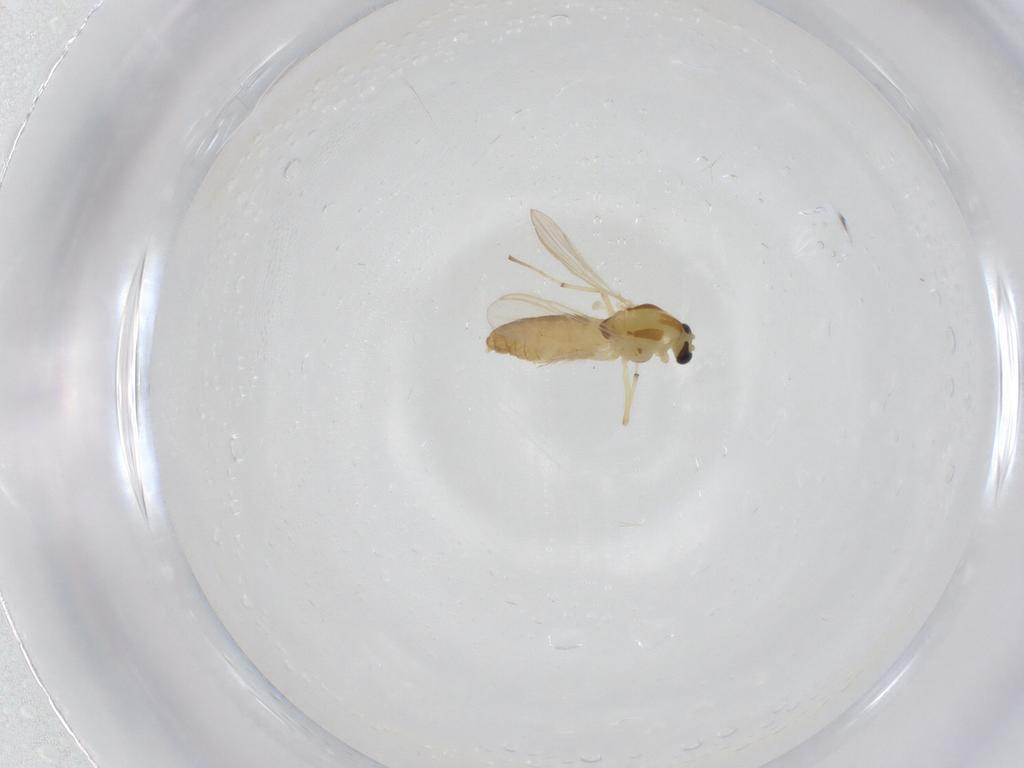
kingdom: Animalia
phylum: Arthropoda
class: Insecta
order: Diptera
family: Chironomidae
